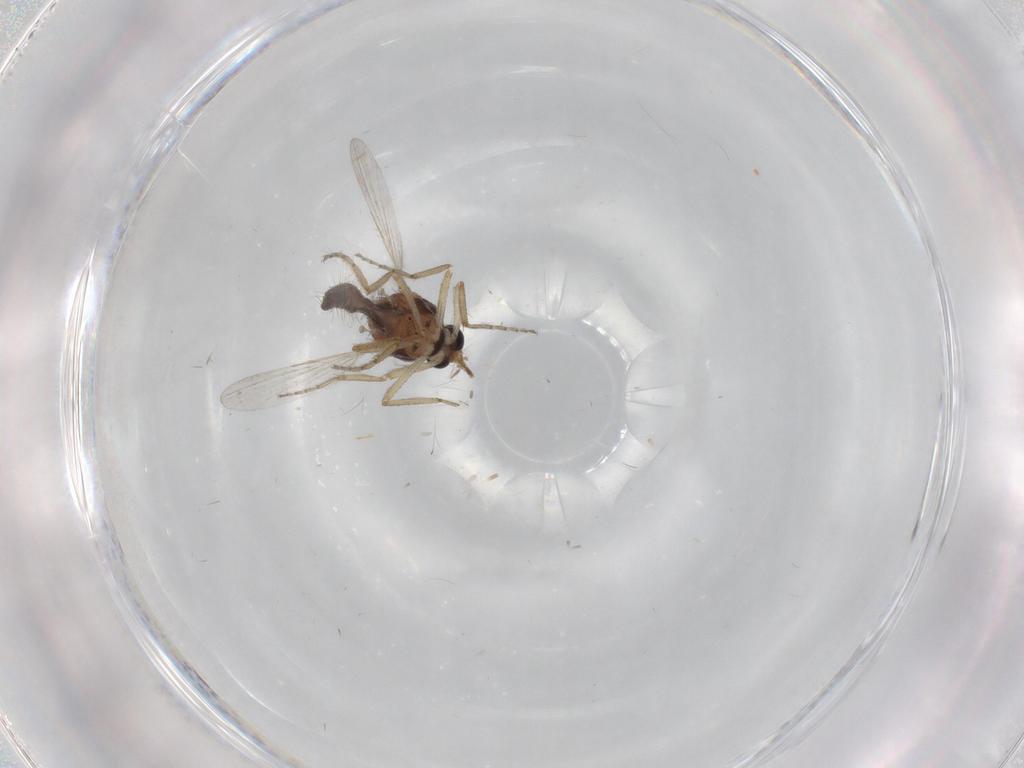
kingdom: Animalia
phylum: Arthropoda
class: Insecta
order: Diptera
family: Ceratopogonidae
